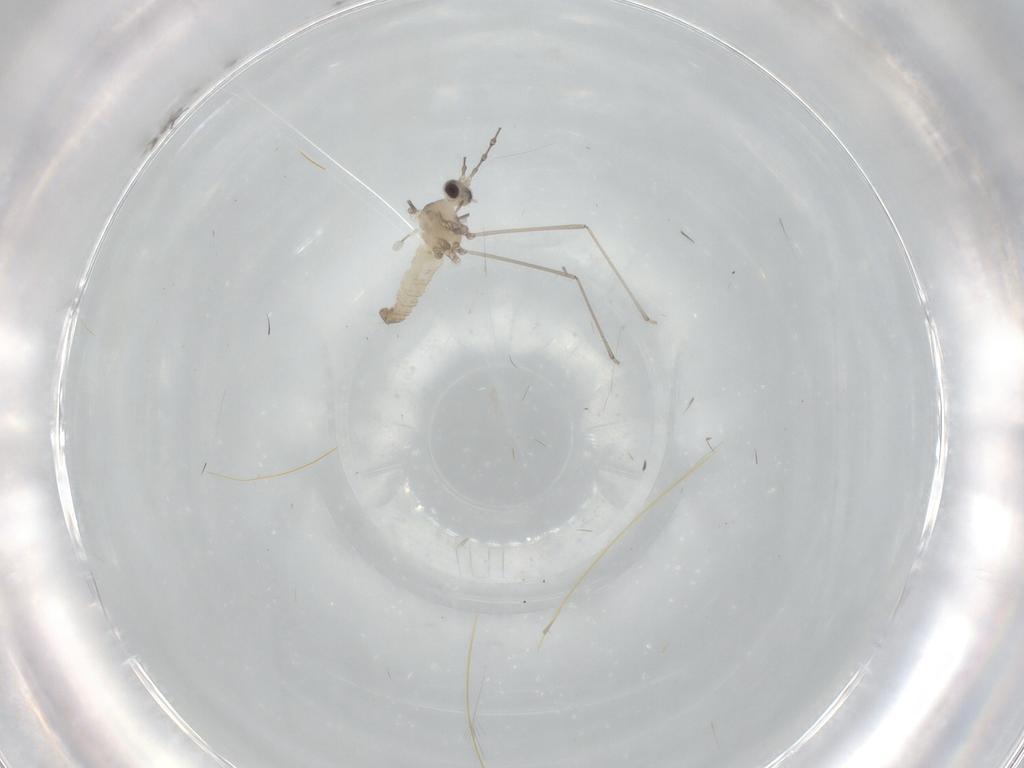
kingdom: Animalia
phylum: Arthropoda
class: Insecta
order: Diptera
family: Cecidomyiidae
